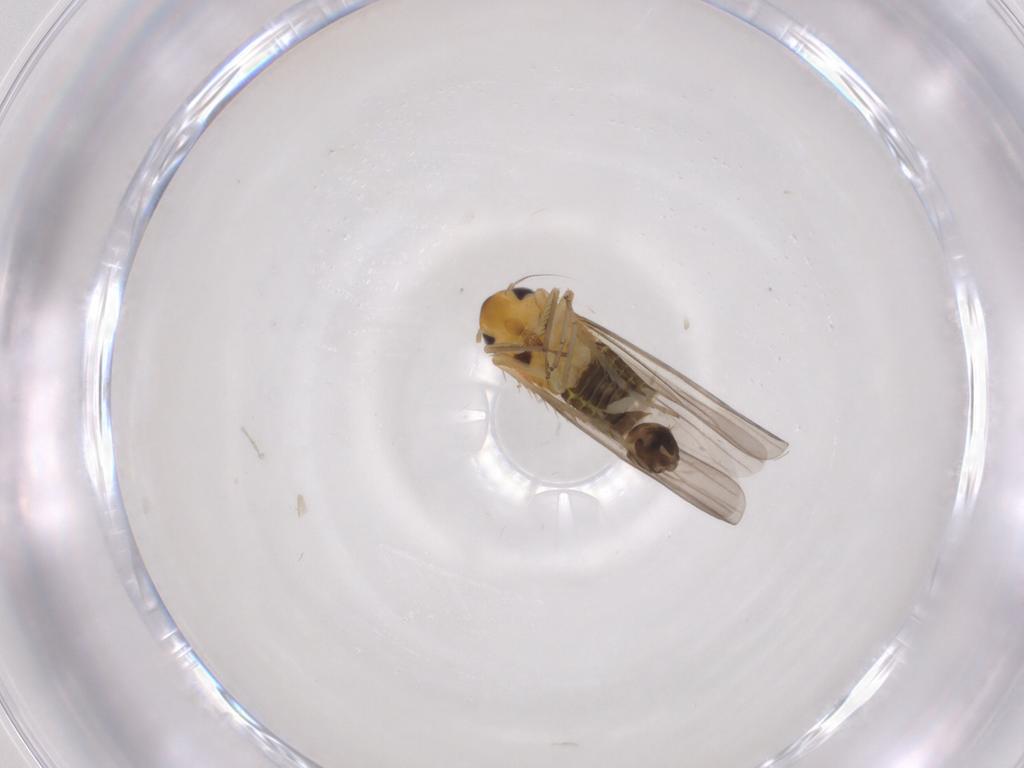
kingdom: Animalia
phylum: Arthropoda
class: Insecta
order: Hemiptera
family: Cicadellidae
